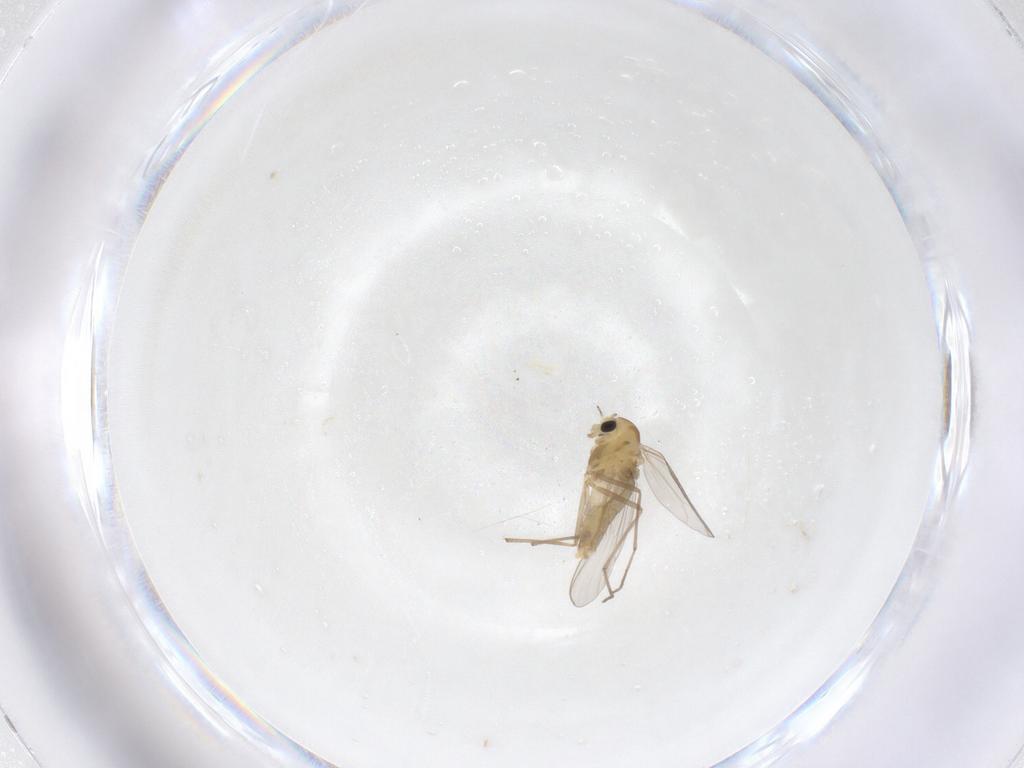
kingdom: Animalia
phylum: Arthropoda
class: Insecta
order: Diptera
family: Chironomidae
